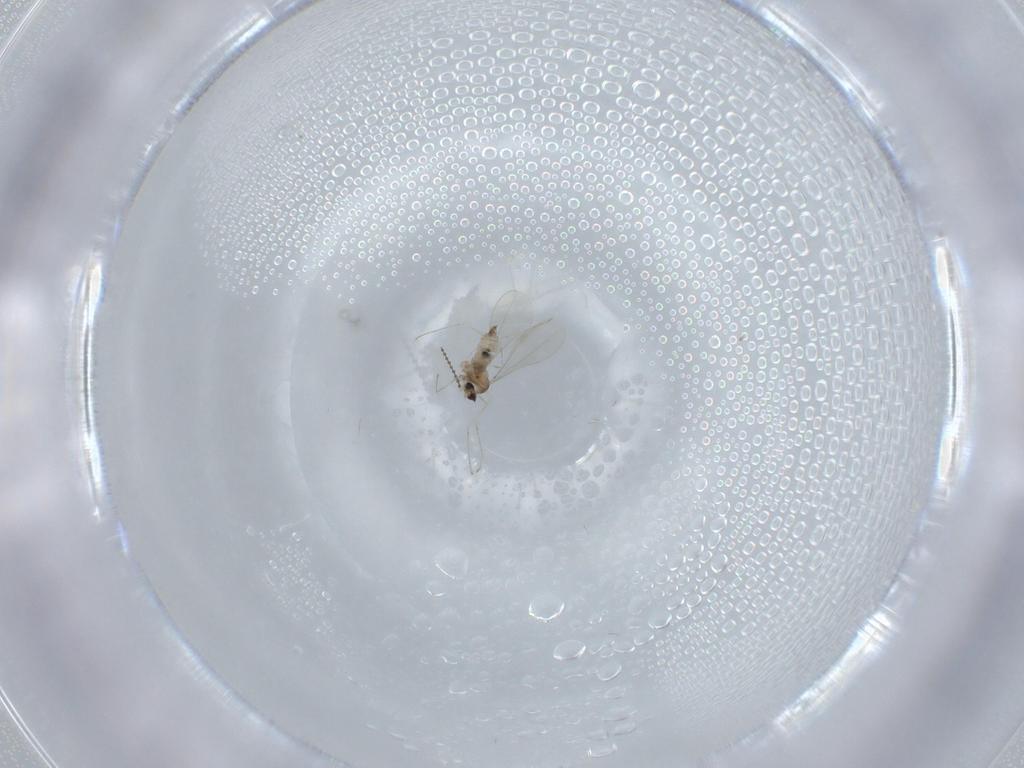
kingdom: Animalia
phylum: Arthropoda
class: Insecta
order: Diptera
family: Cecidomyiidae
